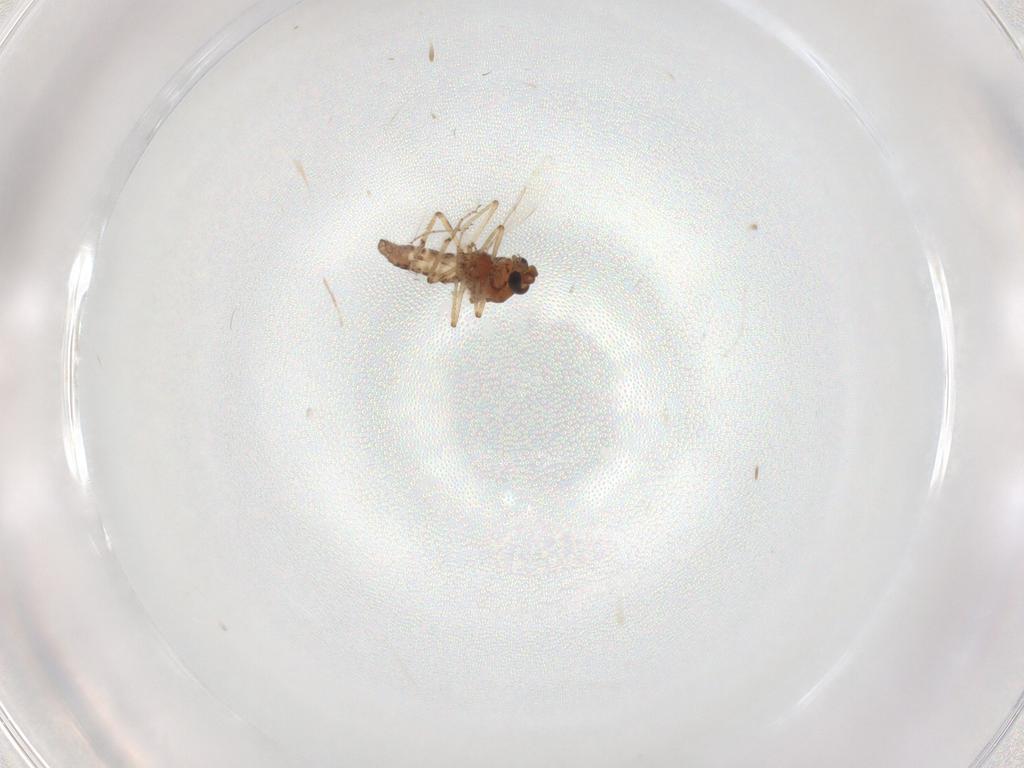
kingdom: Animalia
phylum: Arthropoda
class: Insecta
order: Diptera
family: Ceratopogonidae
